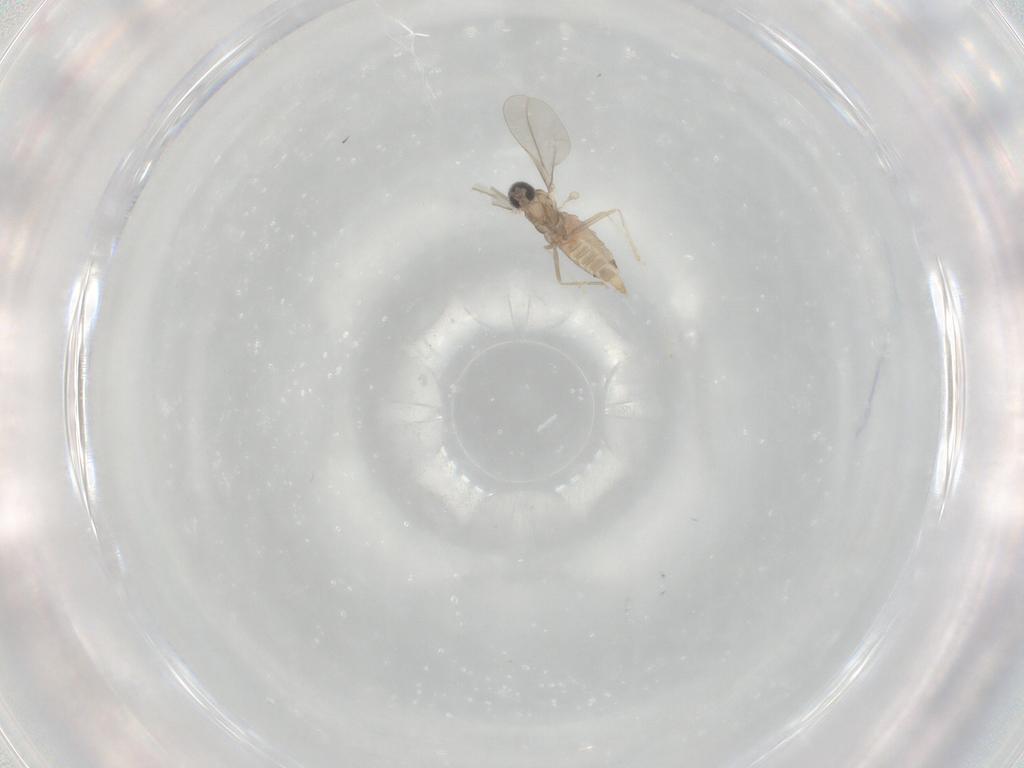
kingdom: Animalia
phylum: Arthropoda
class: Insecta
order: Diptera
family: Cecidomyiidae
